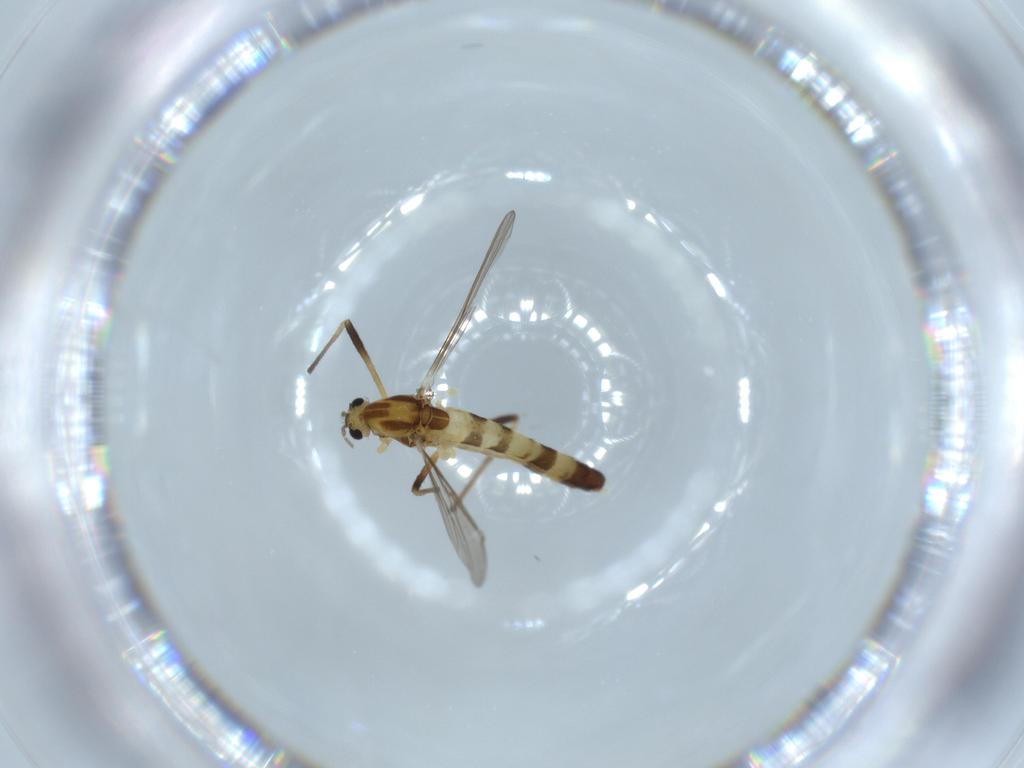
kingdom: Animalia
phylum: Arthropoda
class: Insecta
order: Diptera
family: Chironomidae
